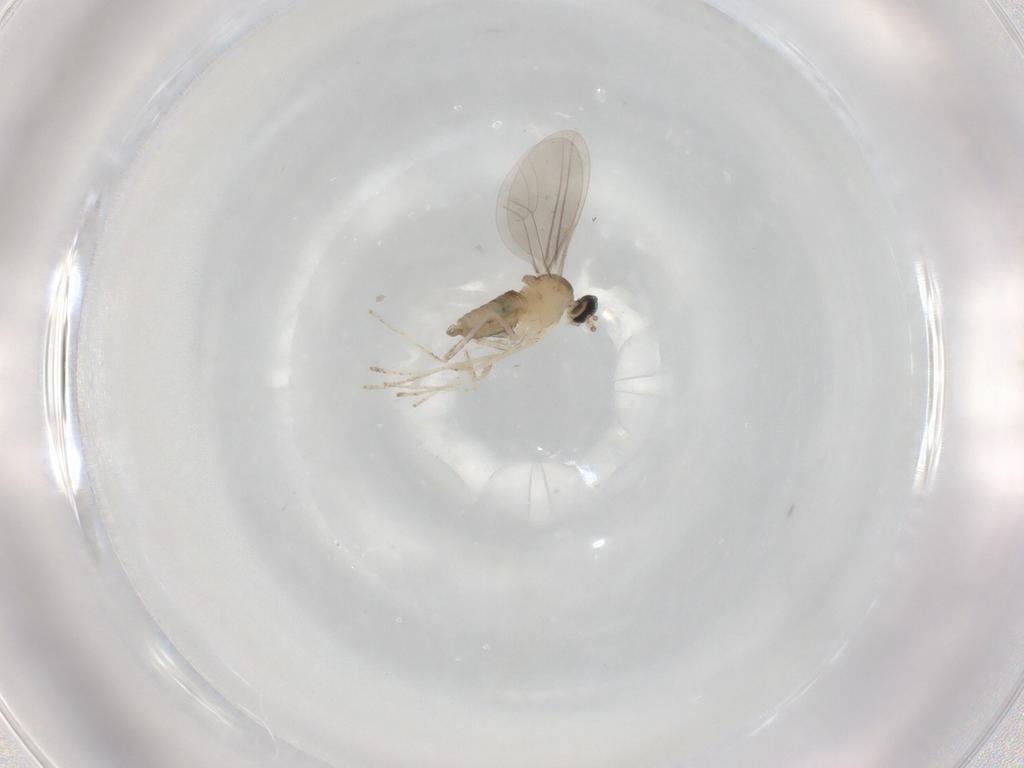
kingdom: Animalia
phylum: Arthropoda
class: Insecta
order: Diptera
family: Cecidomyiidae
